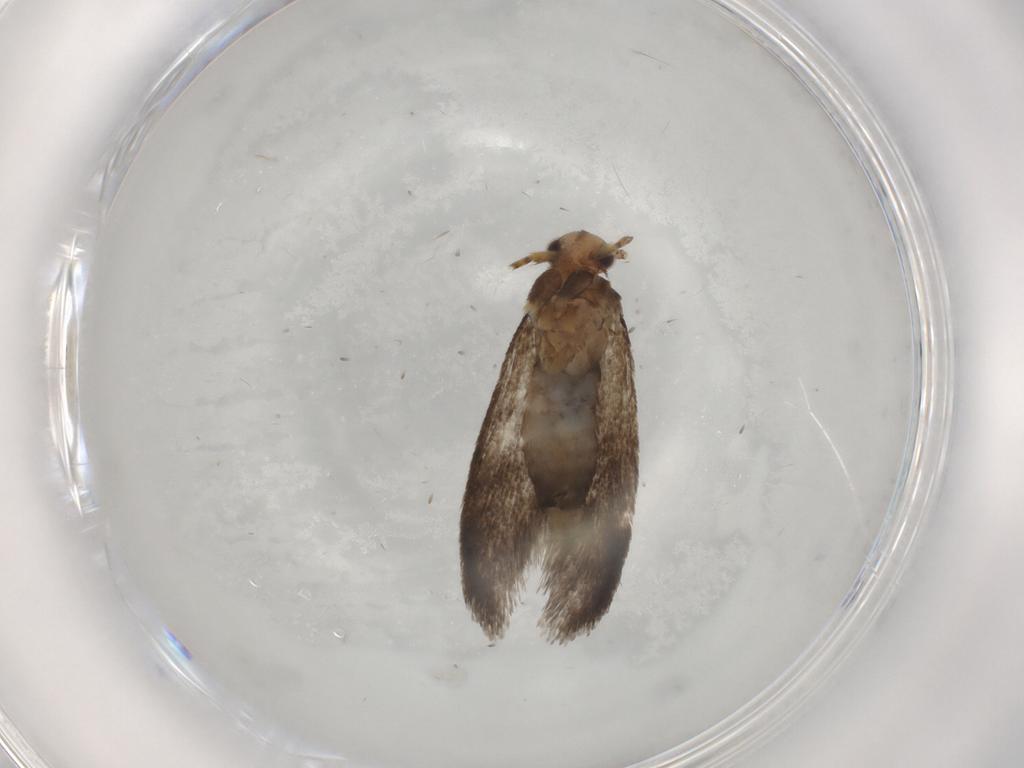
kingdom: Animalia
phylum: Arthropoda
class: Insecta
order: Lepidoptera
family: Tineidae
